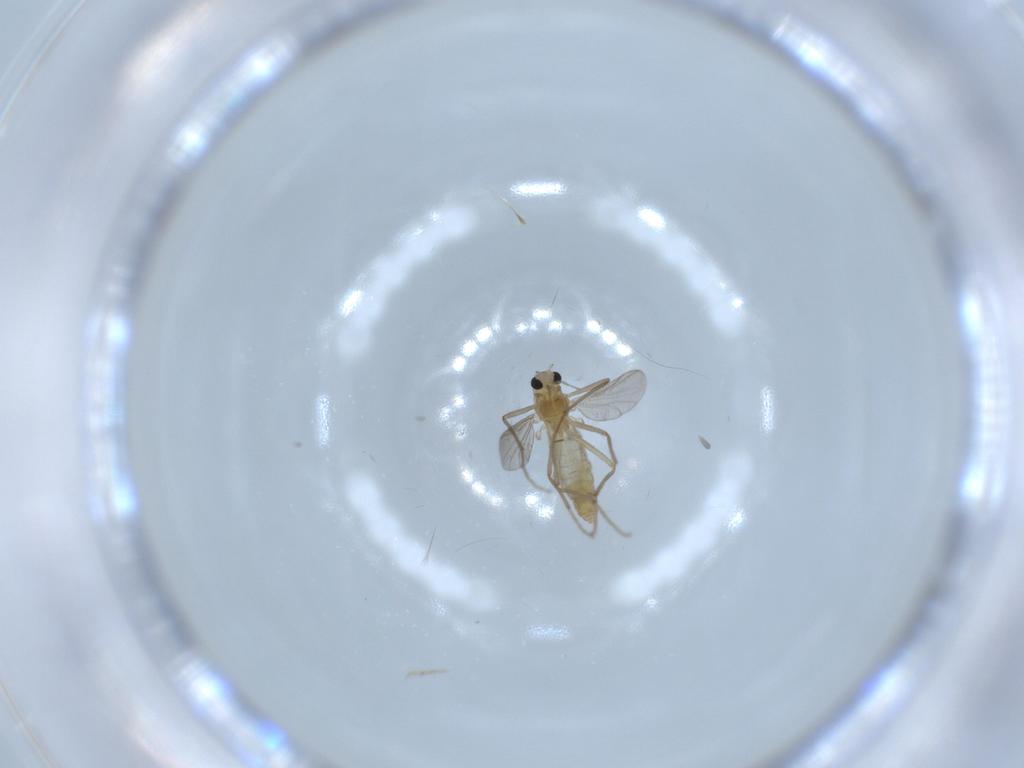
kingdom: Animalia
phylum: Arthropoda
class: Insecta
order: Diptera
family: Chironomidae
